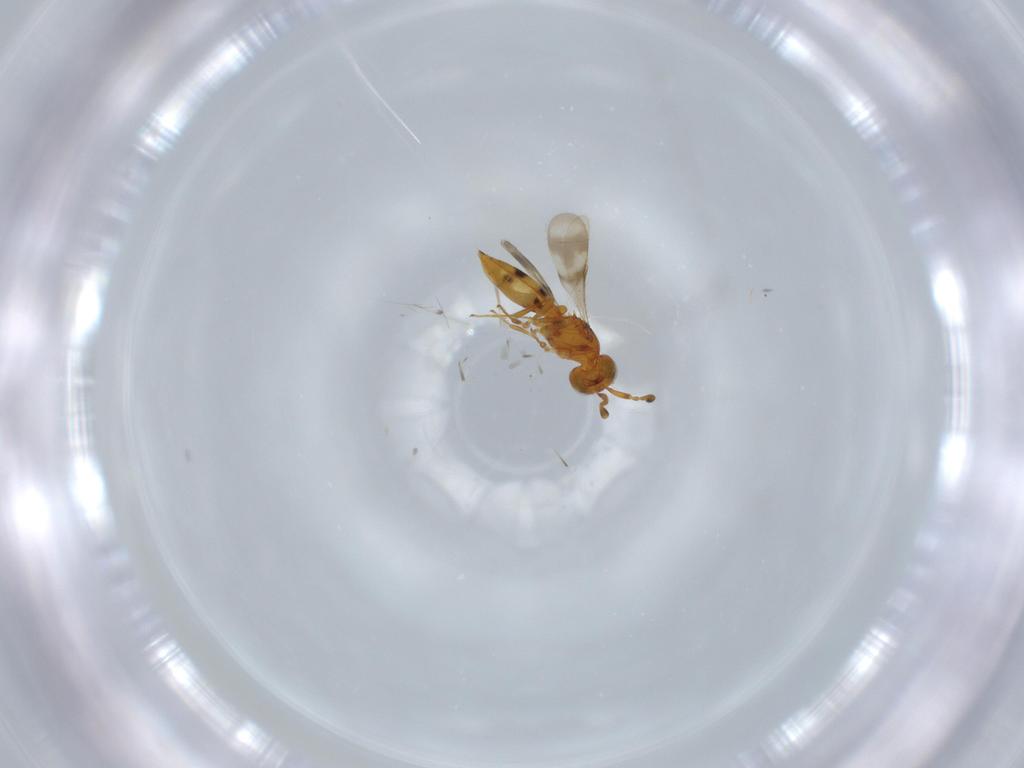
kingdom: Animalia
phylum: Arthropoda
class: Insecta
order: Hymenoptera
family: Scelionidae
